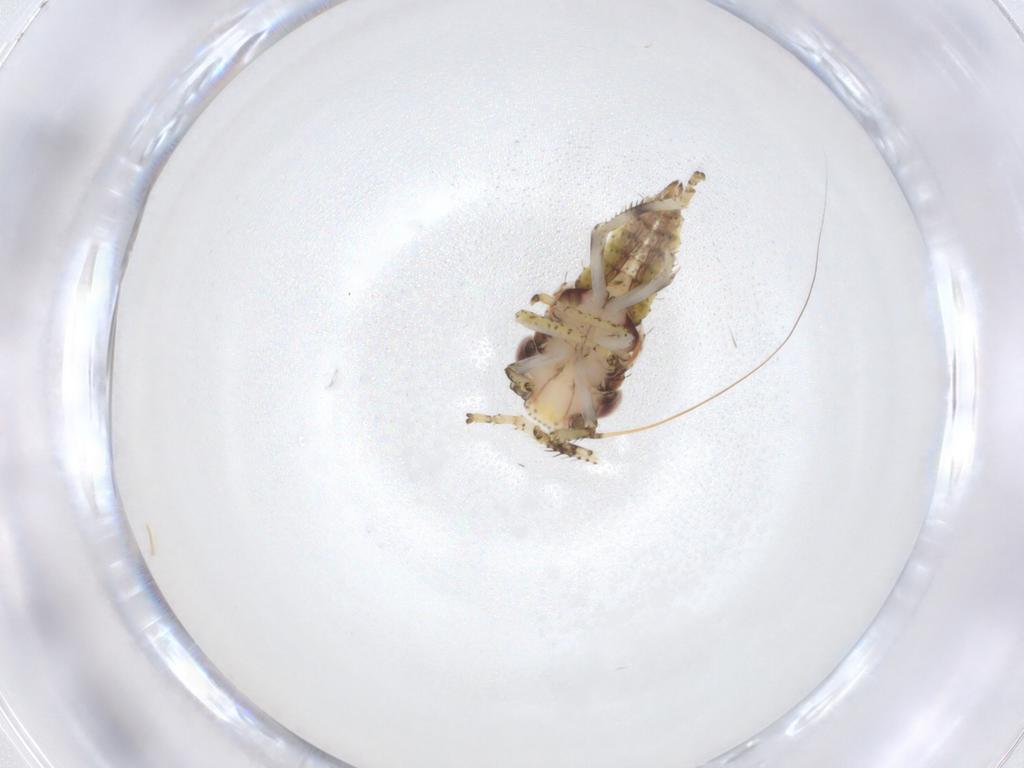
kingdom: Animalia
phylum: Arthropoda
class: Insecta
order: Hemiptera
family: Cicadellidae
